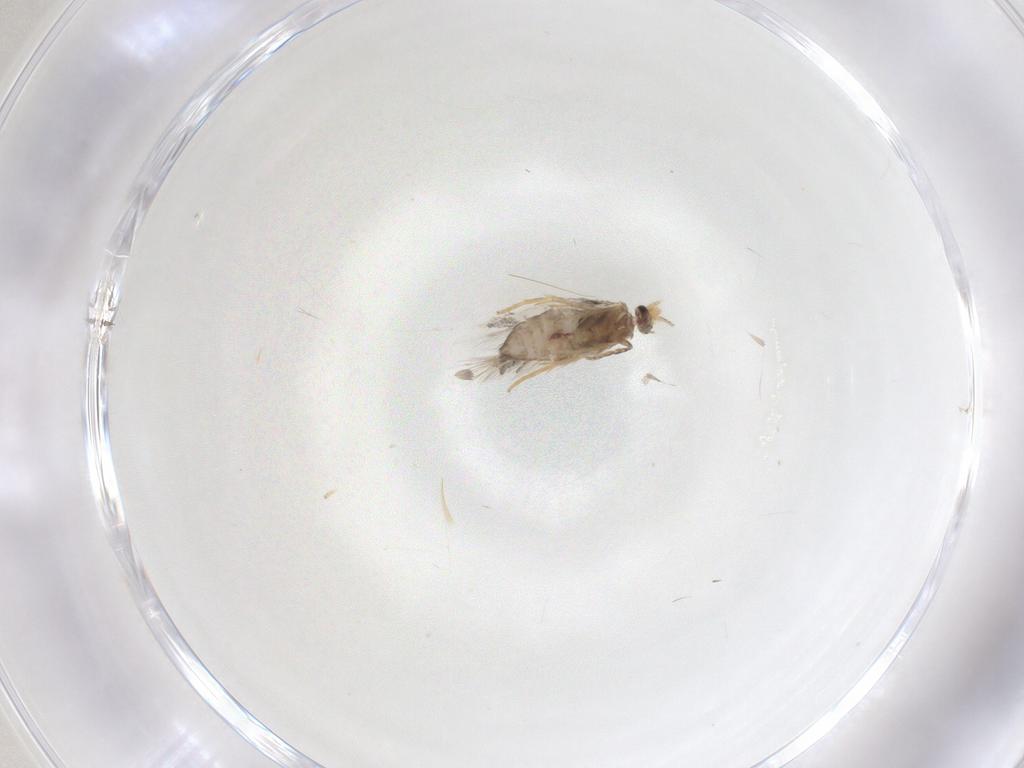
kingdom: Animalia
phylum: Arthropoda
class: Insecta
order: Lepidoptera
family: Nepticulidae
